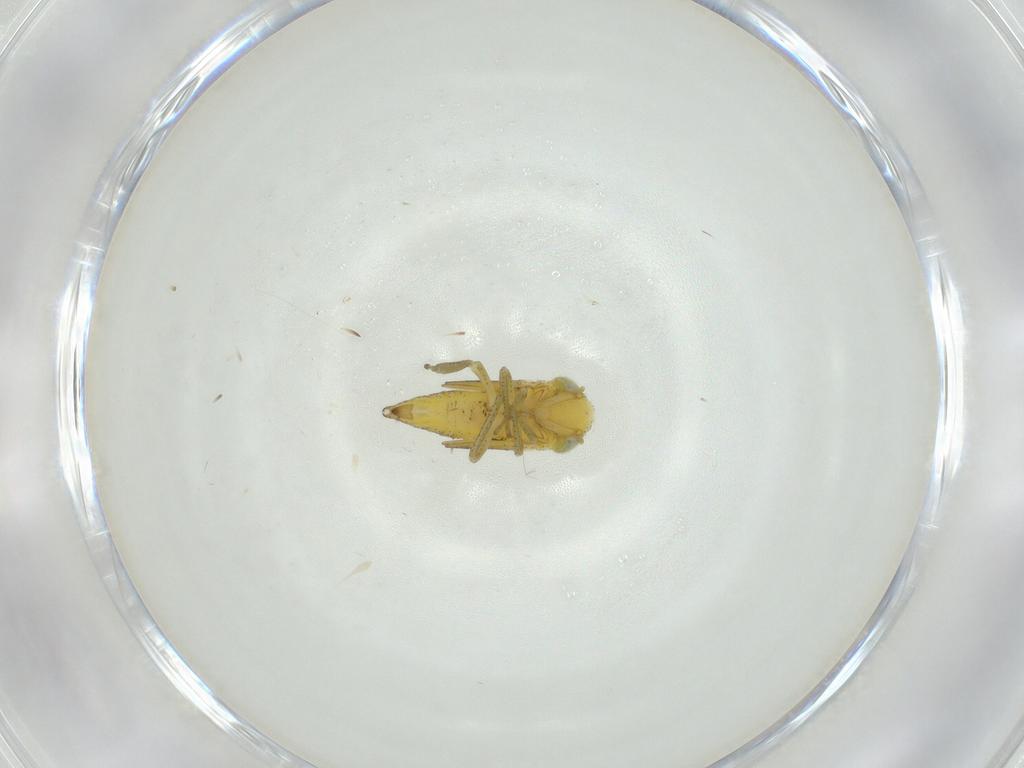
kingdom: Animalia
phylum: Arthropoda
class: Insecta
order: Hemiptera
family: Cicadellidae
